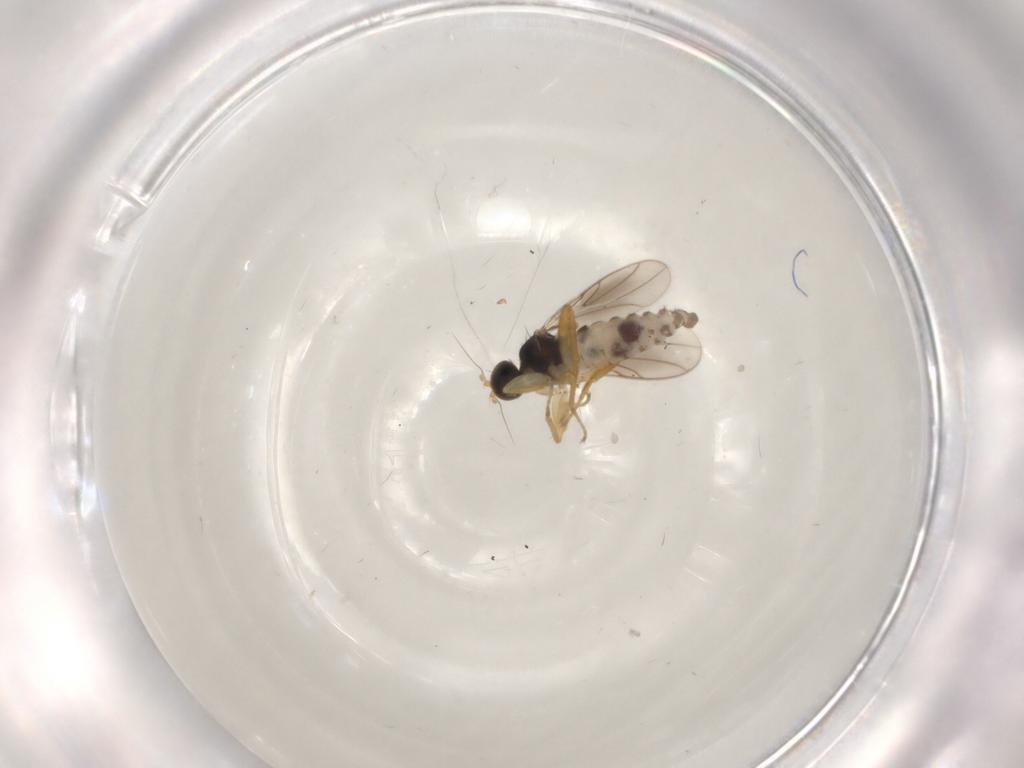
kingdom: Animalia
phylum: Arthropoda
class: Insecta
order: Diptera
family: Hybotidae
